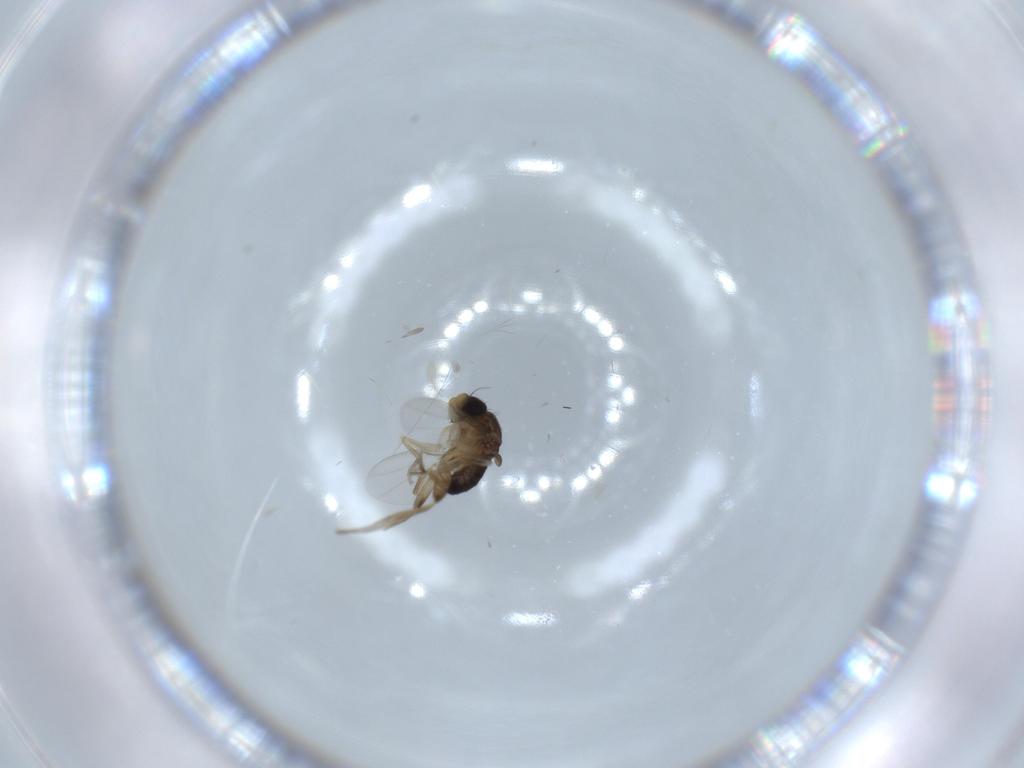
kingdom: Animalia
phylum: Arthropoda
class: Insecta
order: Diptera
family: Phoridae
